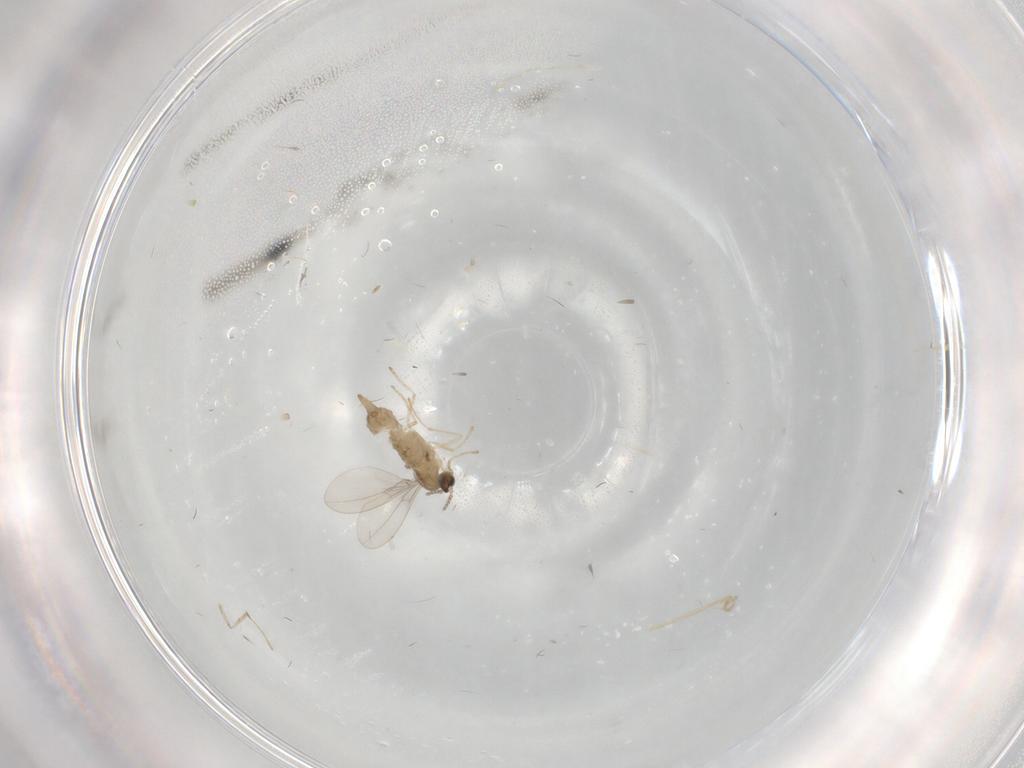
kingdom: Animalia
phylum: Arthropoda
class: Insecta
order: Diptera
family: Cecidomyiidae
